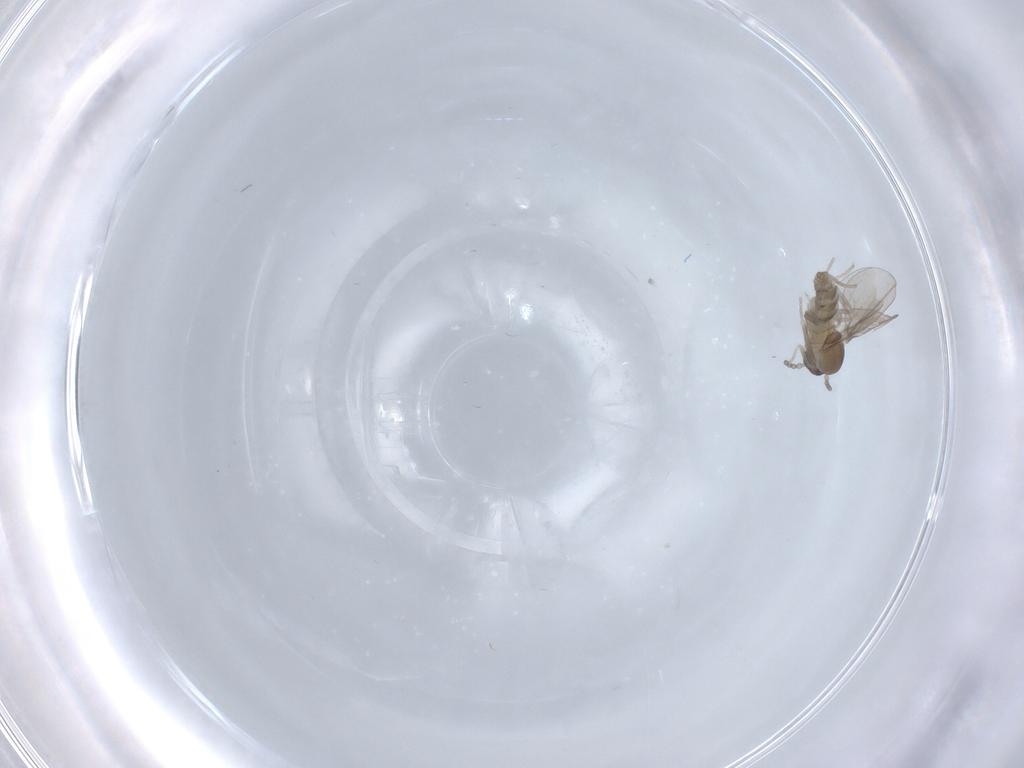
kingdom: Animalia
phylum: Arthropoda
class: Insecta
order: Diptera
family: Cecidomyiidae
